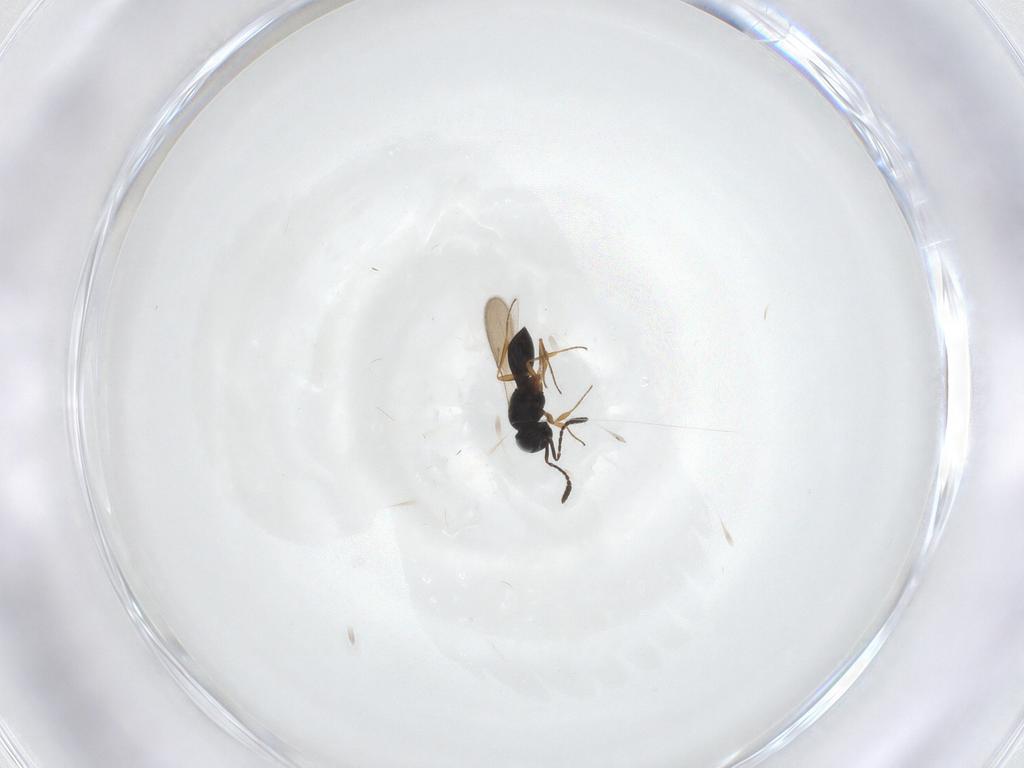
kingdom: Animalia
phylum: Arthropoda
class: Insecta
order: Hymenoptera
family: Scelionidae
